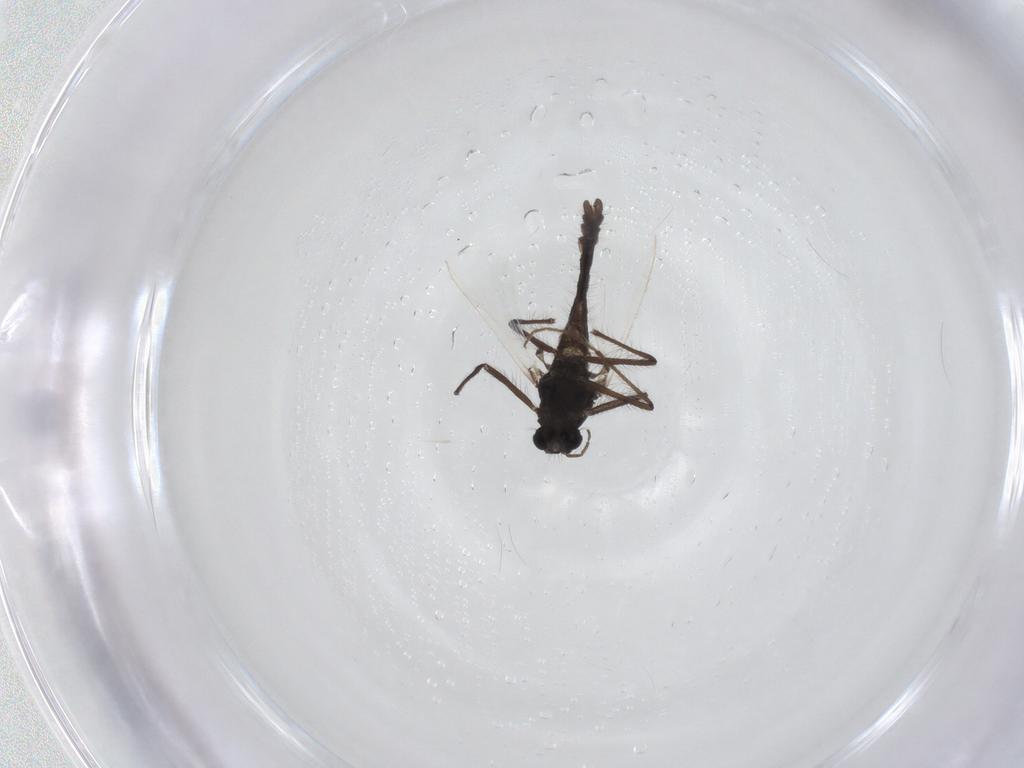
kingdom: Animalia
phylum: Arthropoda
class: Insecta
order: Diptera
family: Chironomidae
